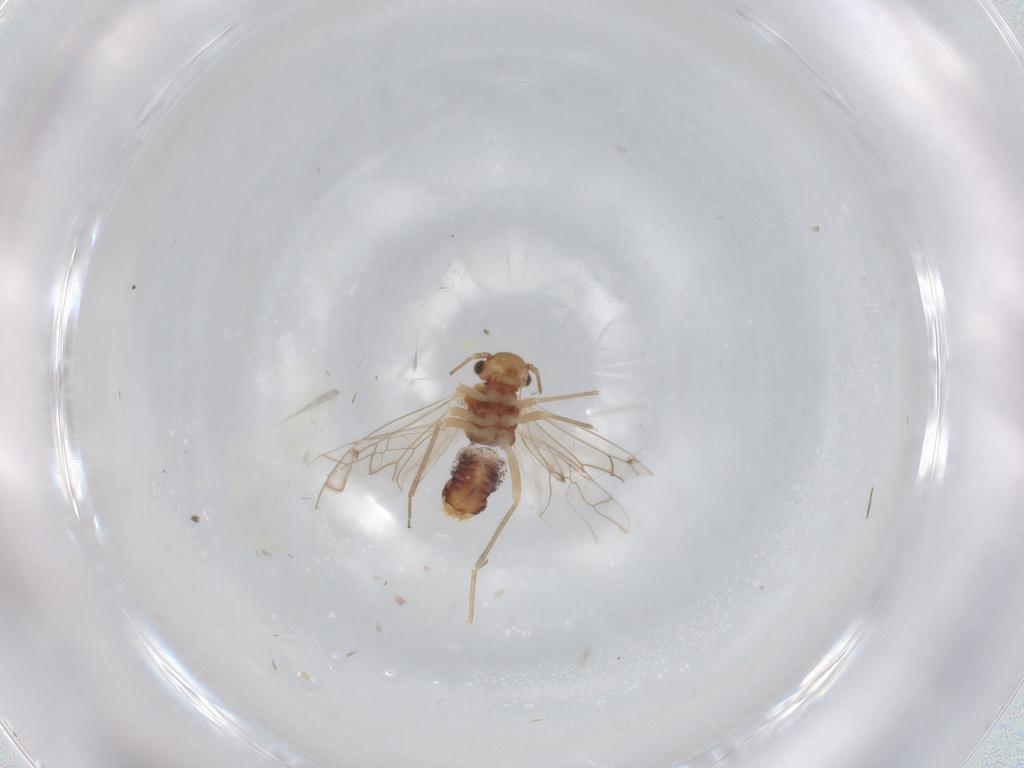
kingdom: Animalia
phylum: Arthropoda
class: Insecta
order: Psocodea
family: Lachesillidae
